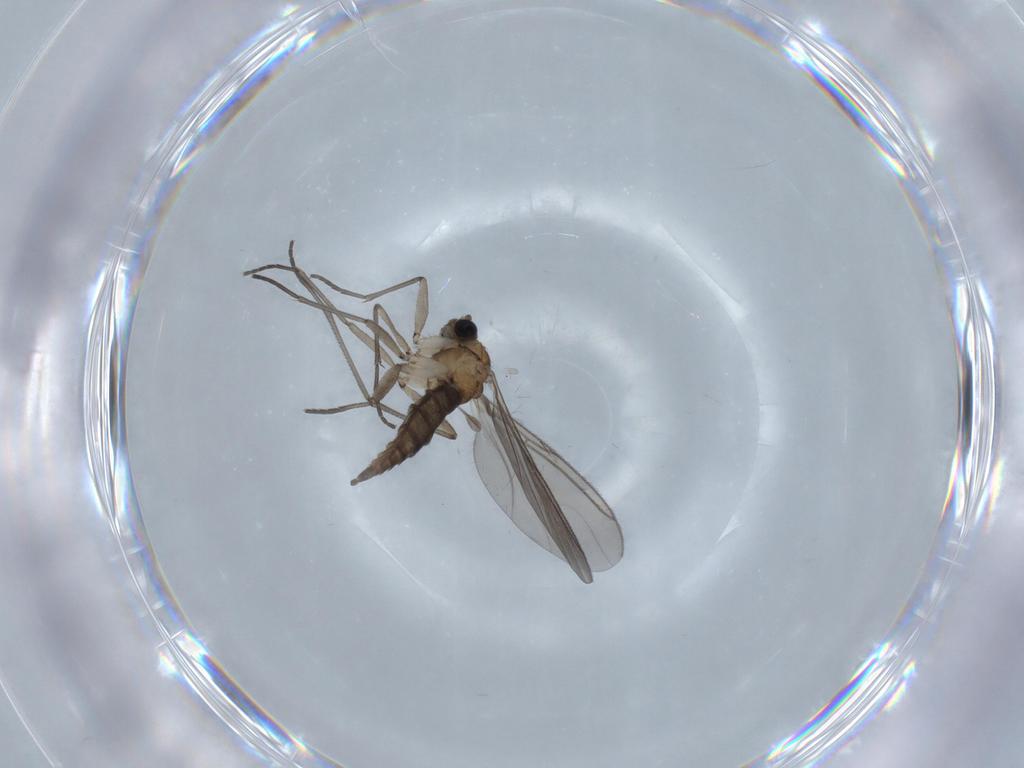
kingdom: Animalia
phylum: Arthropoda
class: Insecta
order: Diptera
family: Sciaridae
